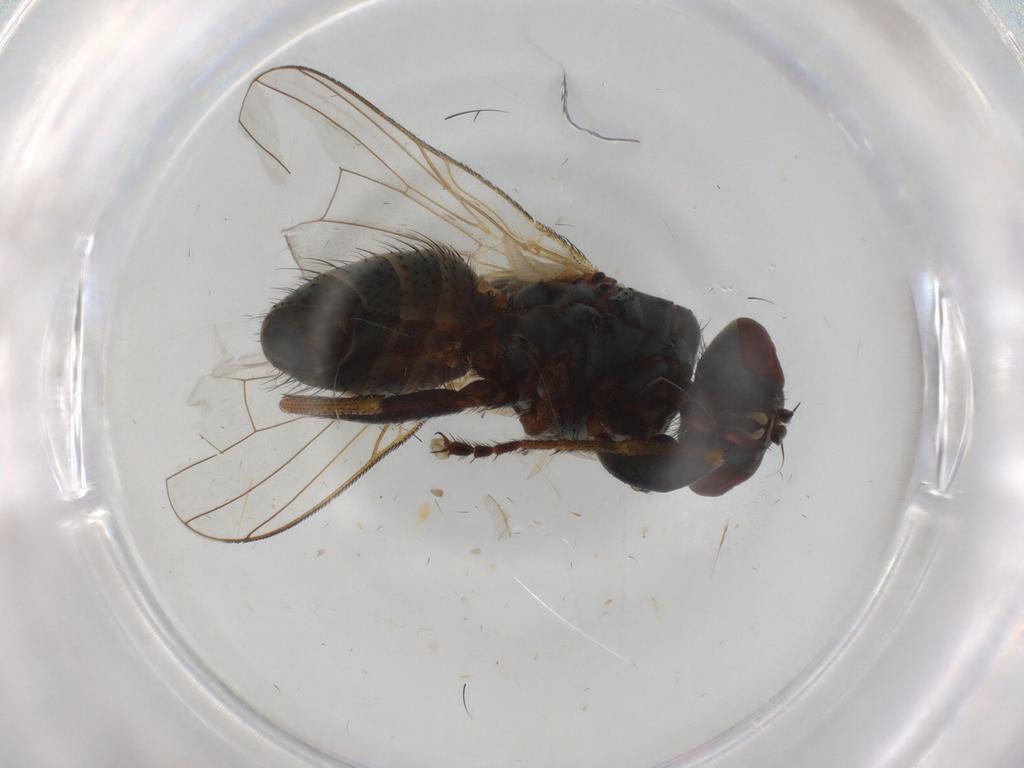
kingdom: Animalia
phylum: Arthropoda
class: Insecta
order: Diptera
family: Muscidae
